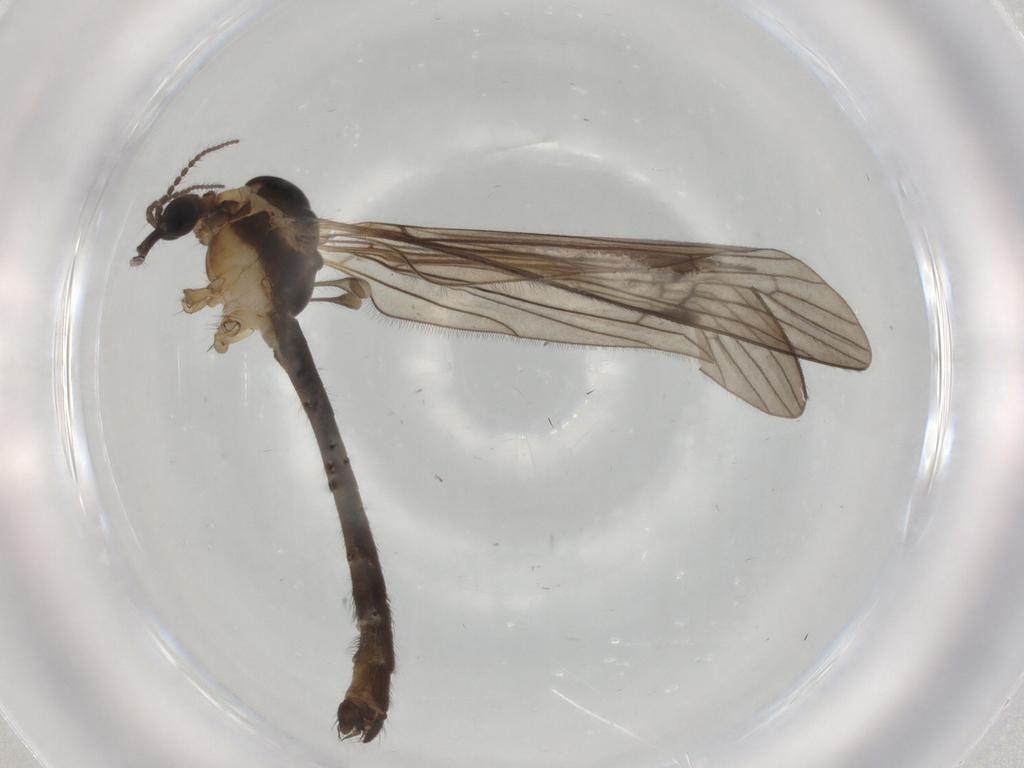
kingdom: Animalia
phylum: Arthropoda
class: Insecta
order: Diptera
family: Limoniidae
